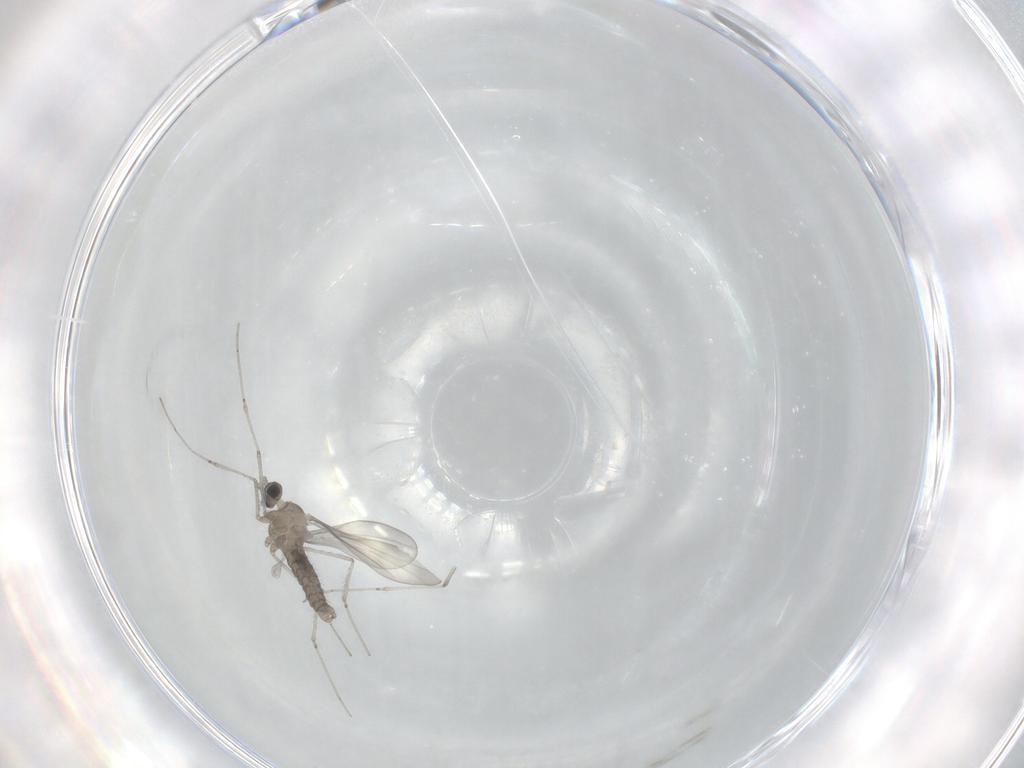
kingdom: Animalia
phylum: Arthropoda
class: Insecta
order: Diptera
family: Cecidomyiidae
